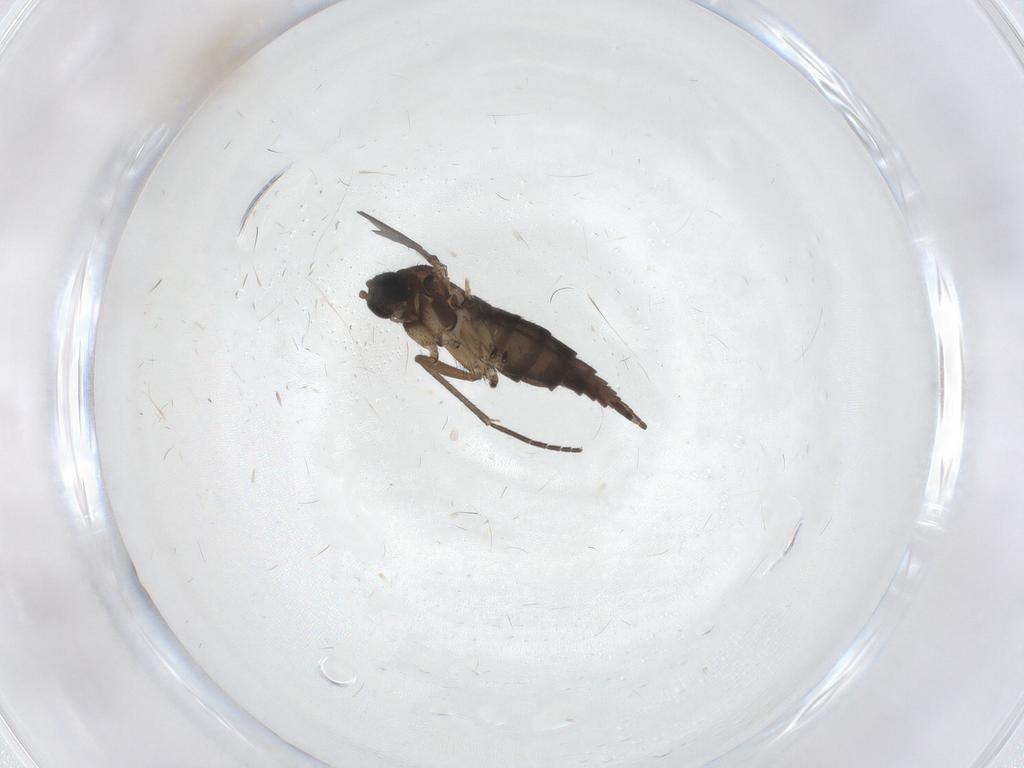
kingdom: Animalia
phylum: Arthropoda
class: Insecta
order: Diptera
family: Sciaridae
